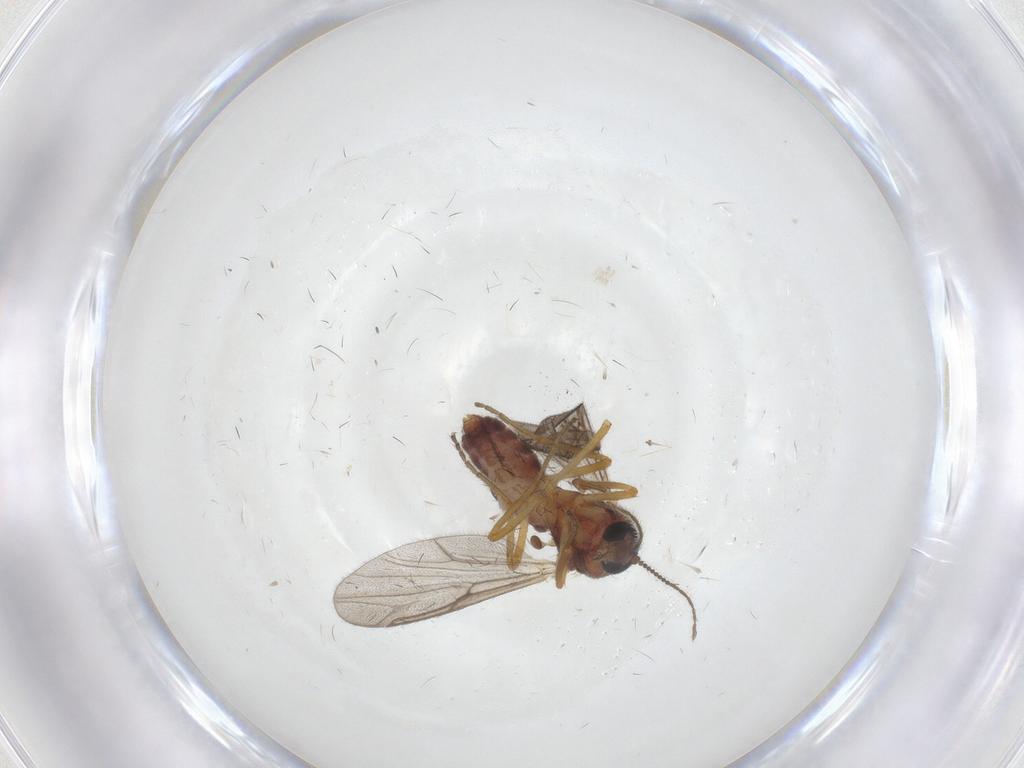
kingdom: Animalia
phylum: Arthropoda
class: Insecta
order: Diptera
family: Ceratopogonidae
